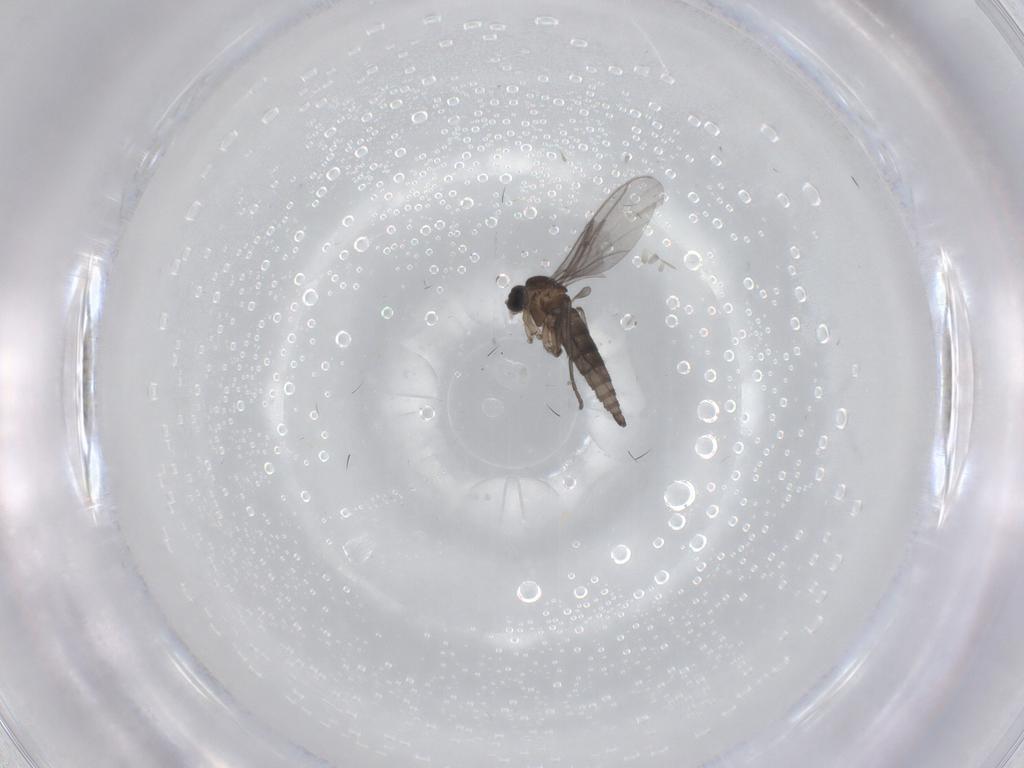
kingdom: Animalia
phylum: Arthropoda
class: Insecta
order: Diptera
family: Sciaridae
